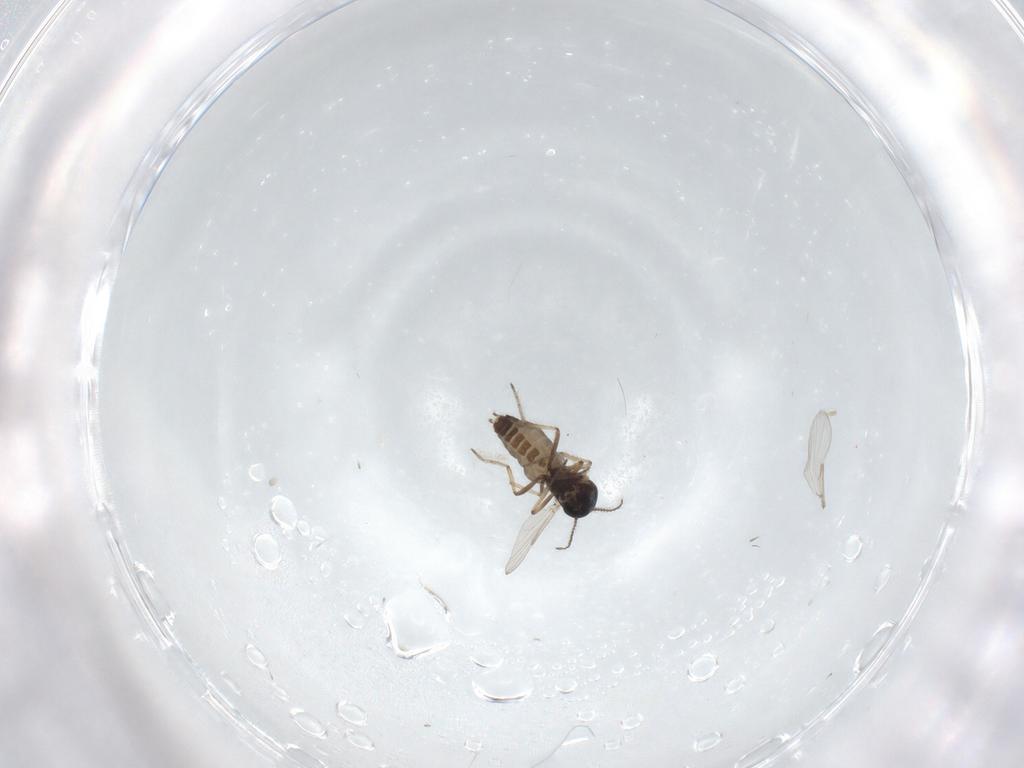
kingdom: Animalia
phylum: Arthropoda
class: Insecta
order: Diptera
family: Ceratopogonidae
